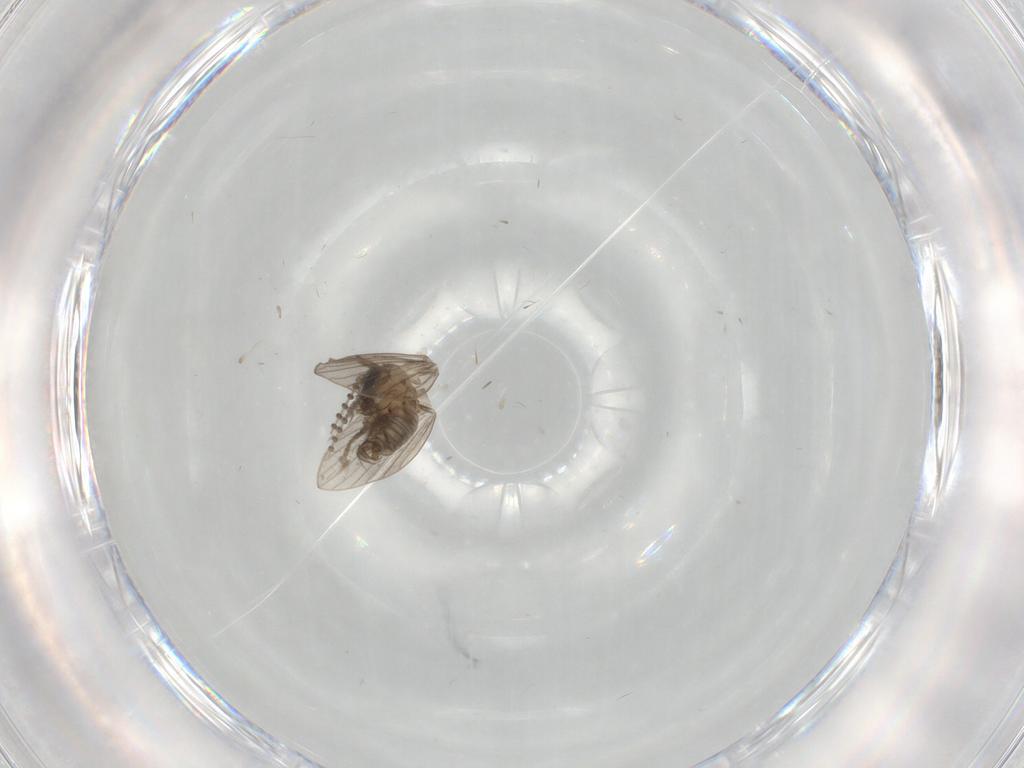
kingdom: Animalia
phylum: Arthropoda
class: Insecta
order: Diptera
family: Psychodidae
